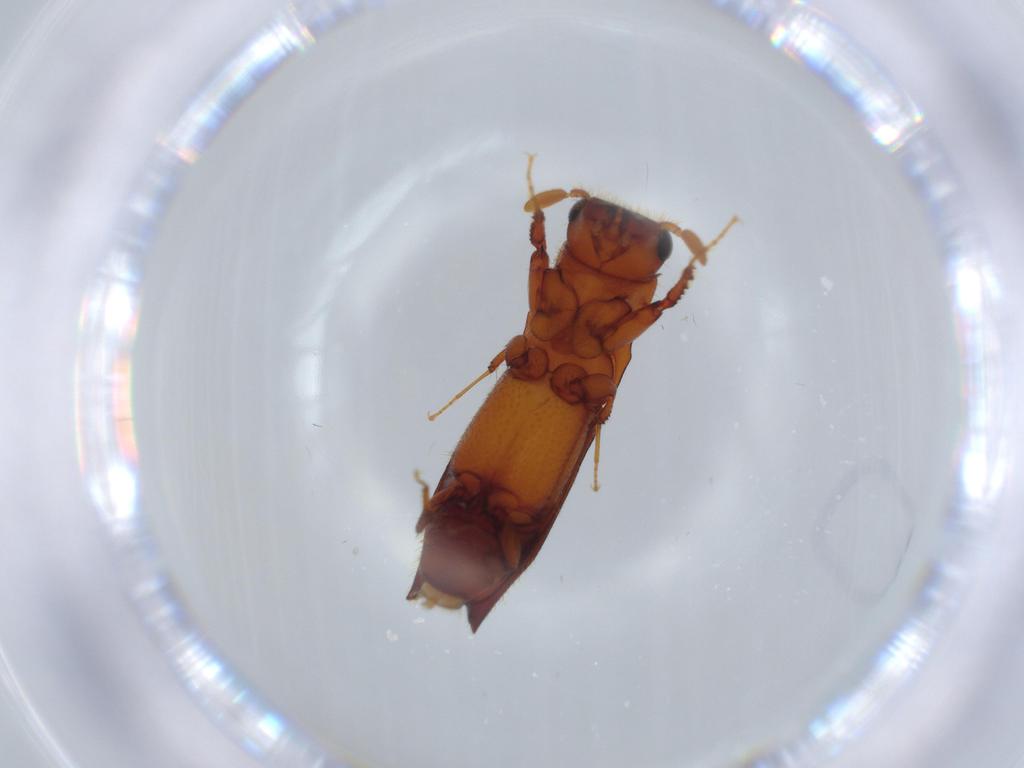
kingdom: Animalia
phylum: Arthropoda
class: Insecta
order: Coleoptera
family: Curculionidae
